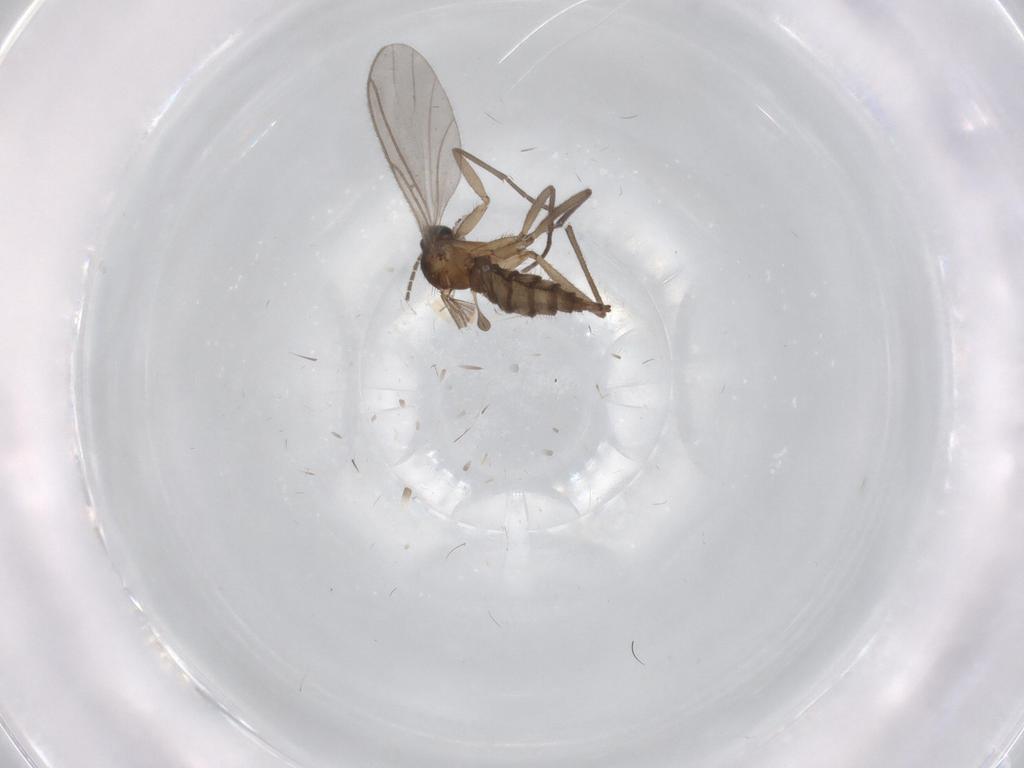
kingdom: Animalia
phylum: Arthropoda
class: Insecta
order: Diptera
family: Sciaridae
